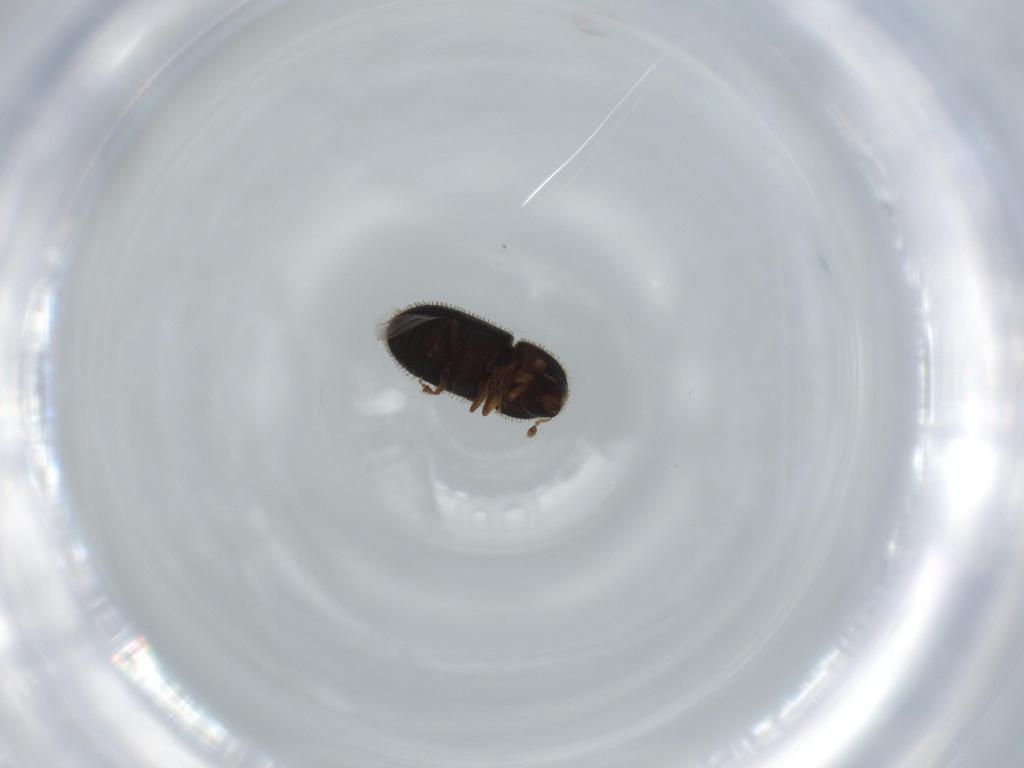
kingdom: Animalia
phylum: Arthropoda
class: Insecta
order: Coleoptera
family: Curculionidae
